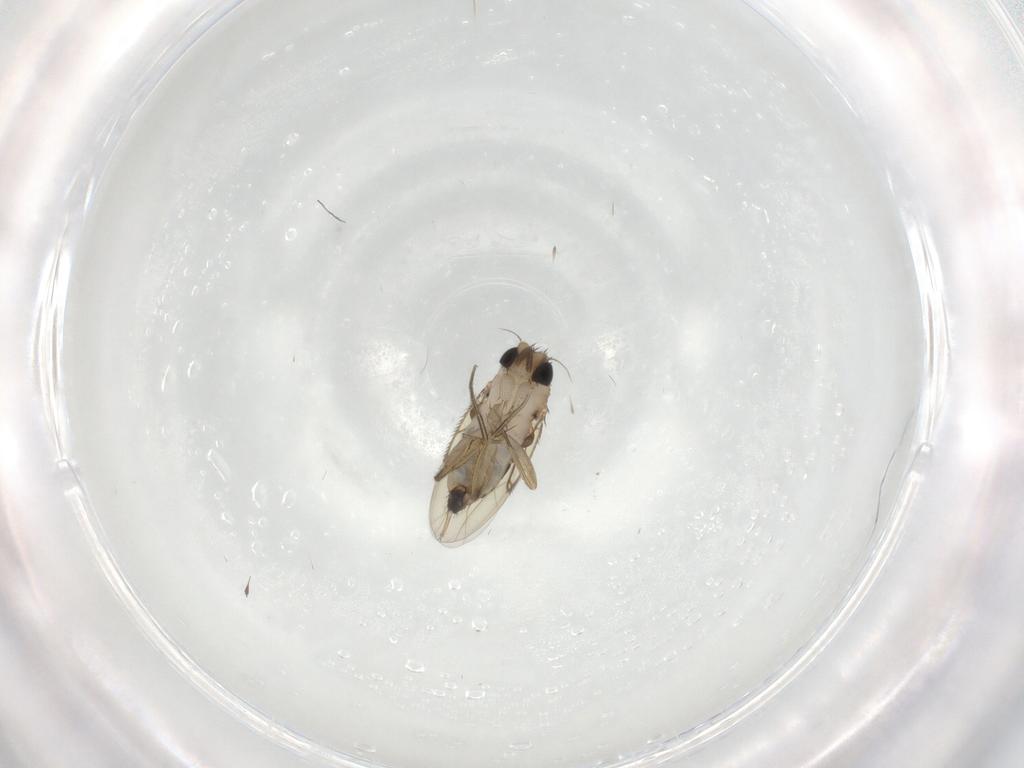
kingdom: Animalia
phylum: Arthropoda
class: Insecta
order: Diptera
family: Phoridae
